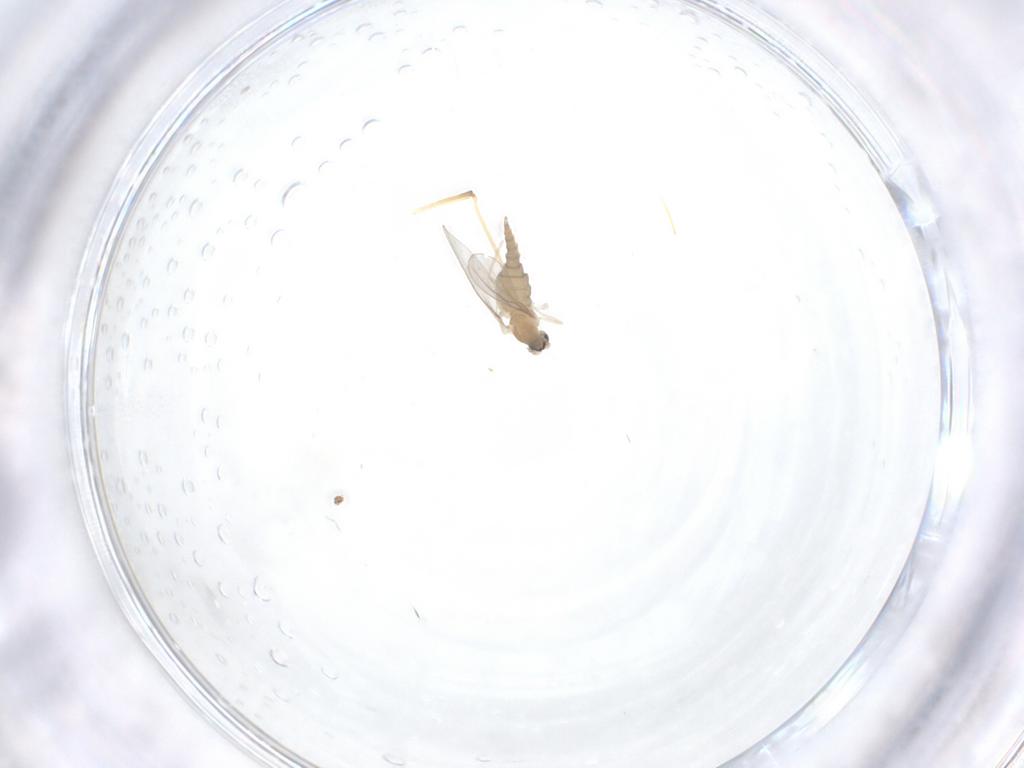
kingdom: Animalia
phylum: Arthropoda
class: Insecta
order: Diptera
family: Cecidomyiidae
